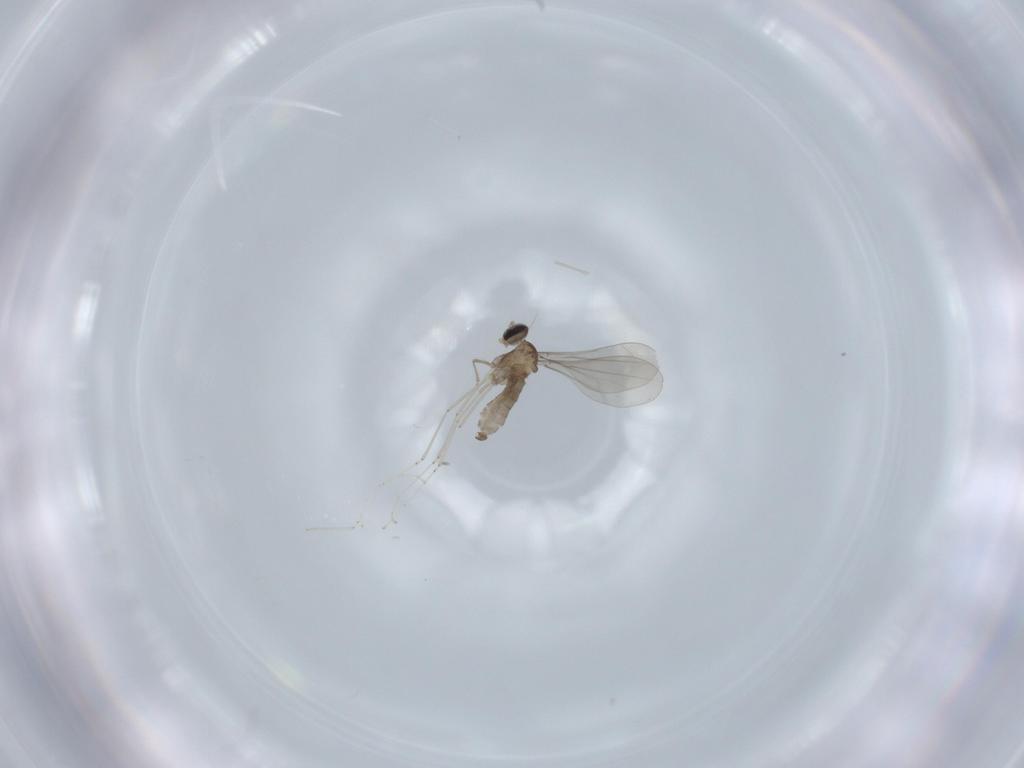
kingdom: Animalia
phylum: Arthropoda
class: Insecta
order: Diptera
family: Cecidomyiidae
